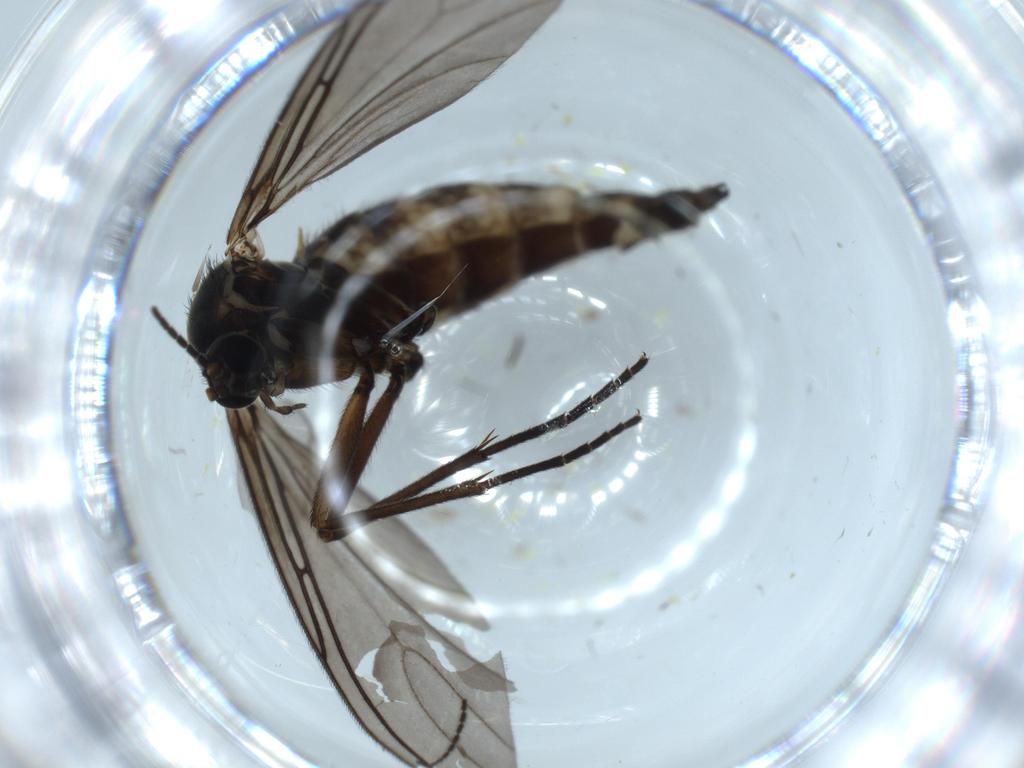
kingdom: Animalia
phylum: Arthropoda
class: Insecta
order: Diptera
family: Sciaridae
